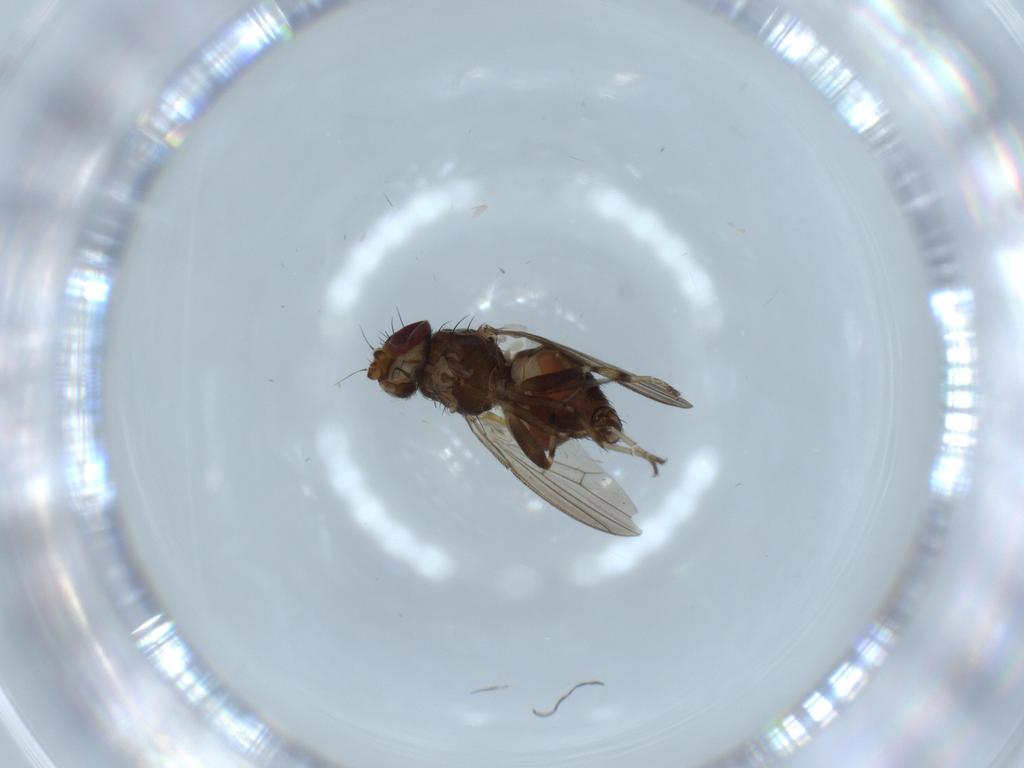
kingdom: Animalia
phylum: Arthropoda
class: Insecta
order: Diptera
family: Heleomyzidae
